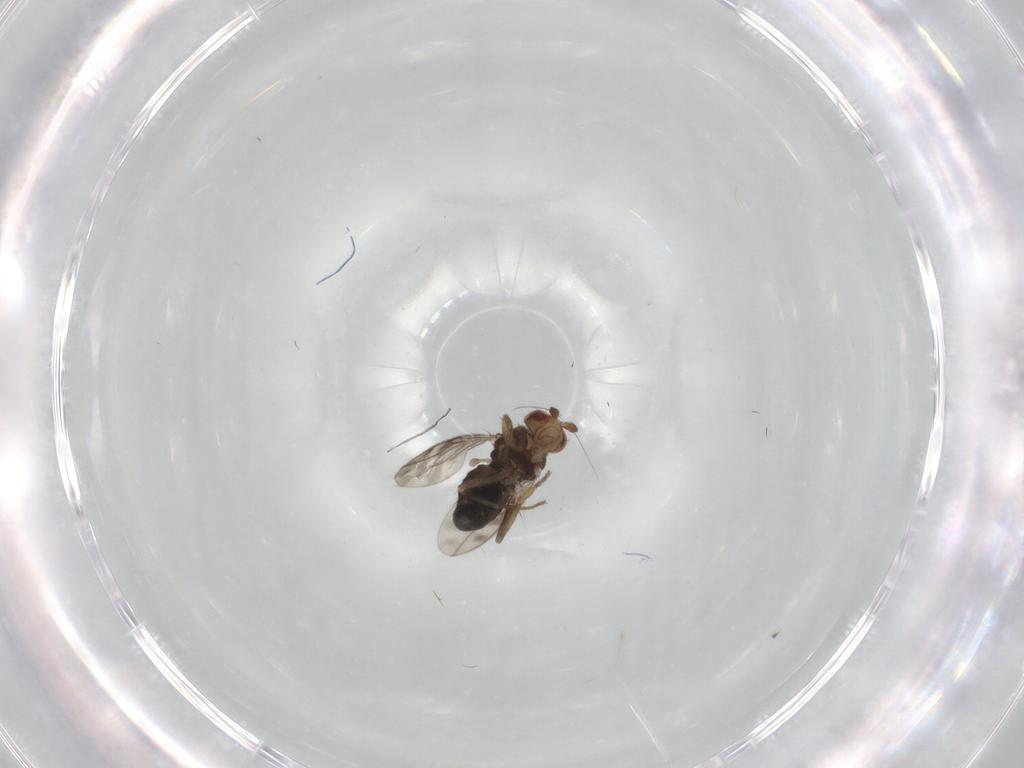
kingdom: Animalia
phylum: Arthropoda
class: Insecta
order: Diptera
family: Sphaeroceridae
